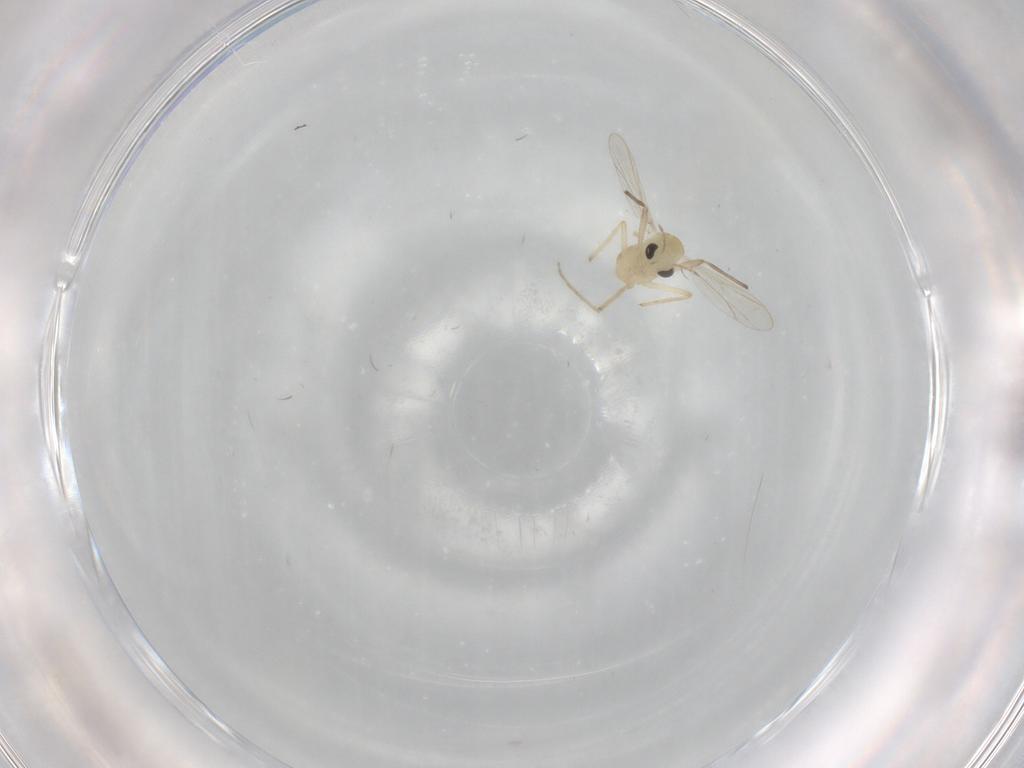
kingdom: Animalia
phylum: Arthropoda
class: Insecta
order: Diptera
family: Chironomidae
